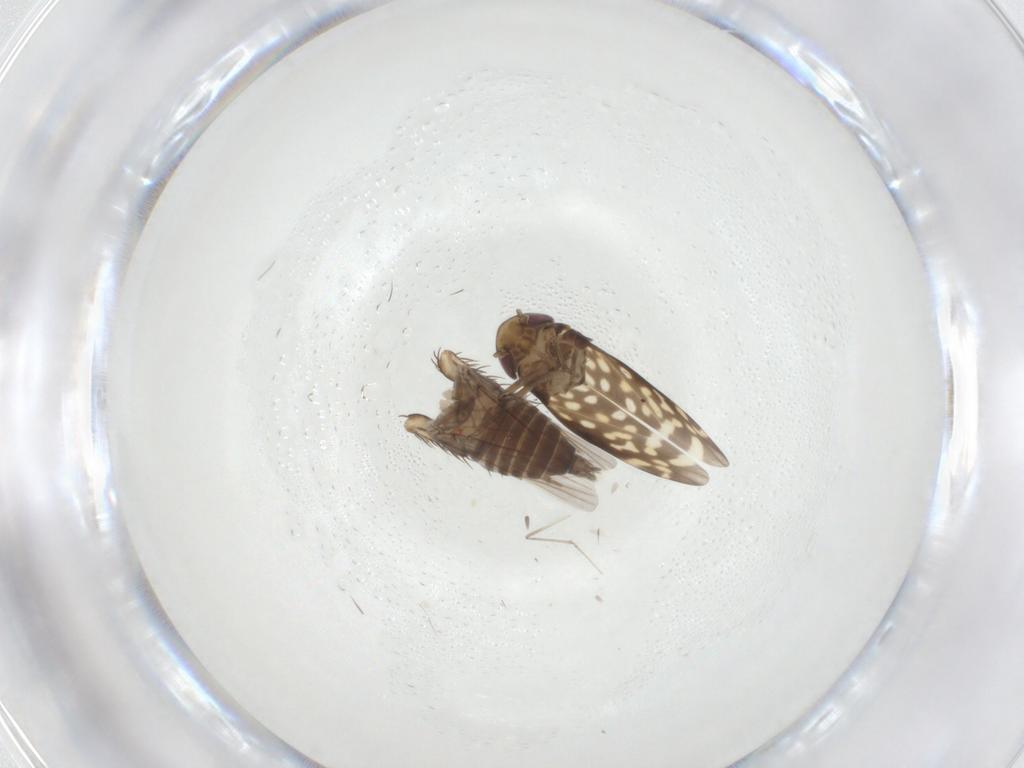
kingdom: Animalia
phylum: Arthropoda
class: Insecta
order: Hemiptera
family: Cicadellidae
